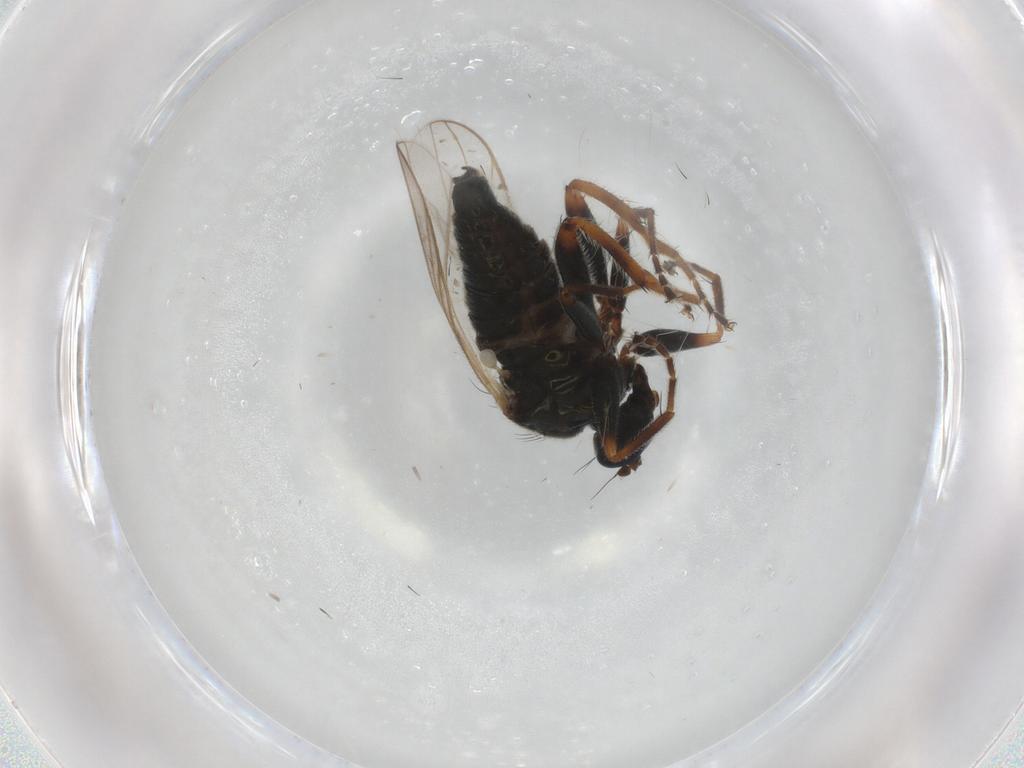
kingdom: Animalia
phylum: Arthropoda
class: Insecta
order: Diptera
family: Hybotidae
